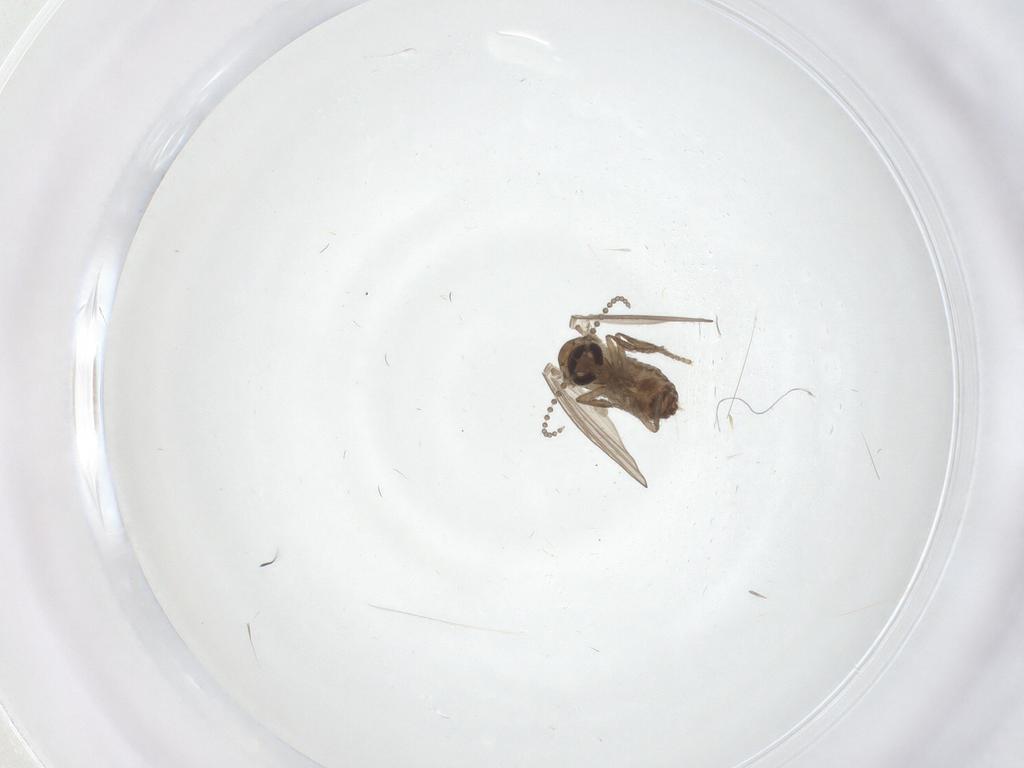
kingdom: Animalia
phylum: Arthropoda
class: Insecta
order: Diptera
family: Psychodidae
